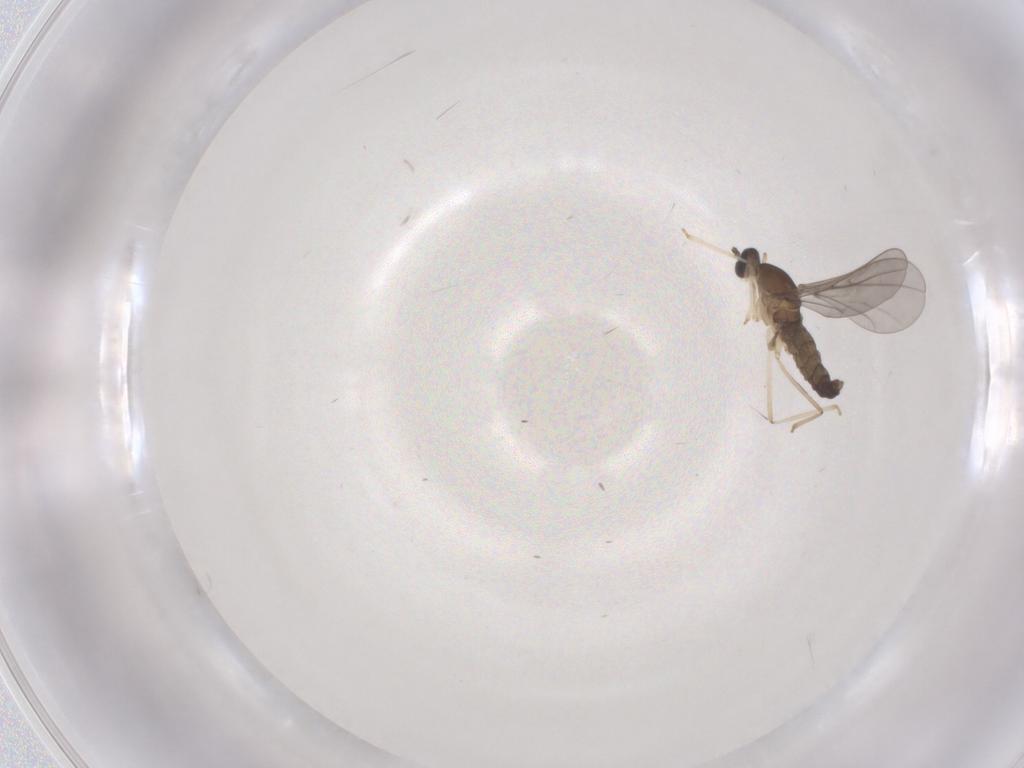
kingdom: Animalia
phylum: Arthropoda
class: Insecta
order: Diptera
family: Cecidomyiidae
